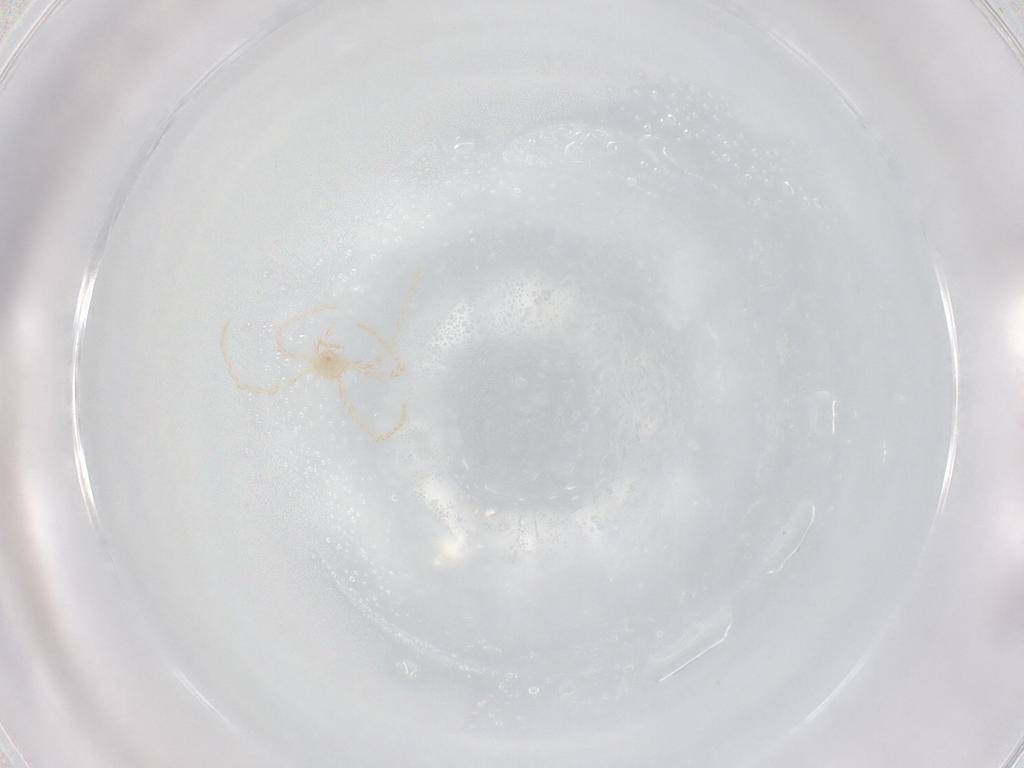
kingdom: Animalia
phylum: Arthropoda
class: Arachnida
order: Trombidiformes
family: Erythraeidae
